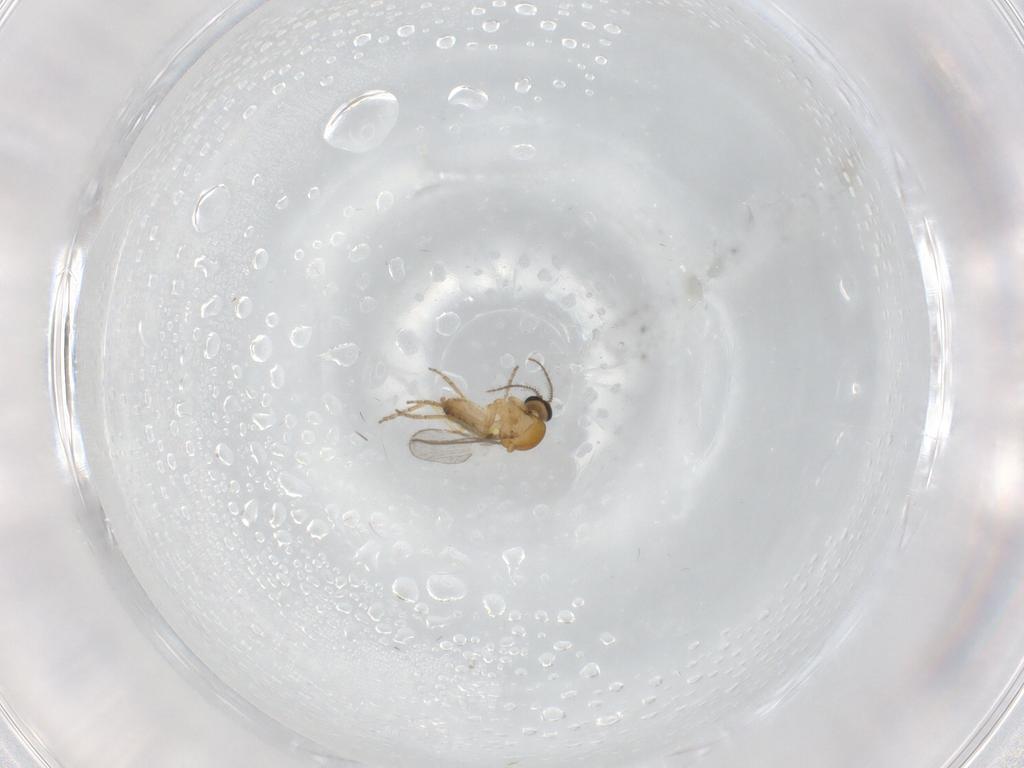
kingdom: Animalia
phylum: Arthropoda
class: Insecta
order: Diptera
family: Ceratopogonidae
